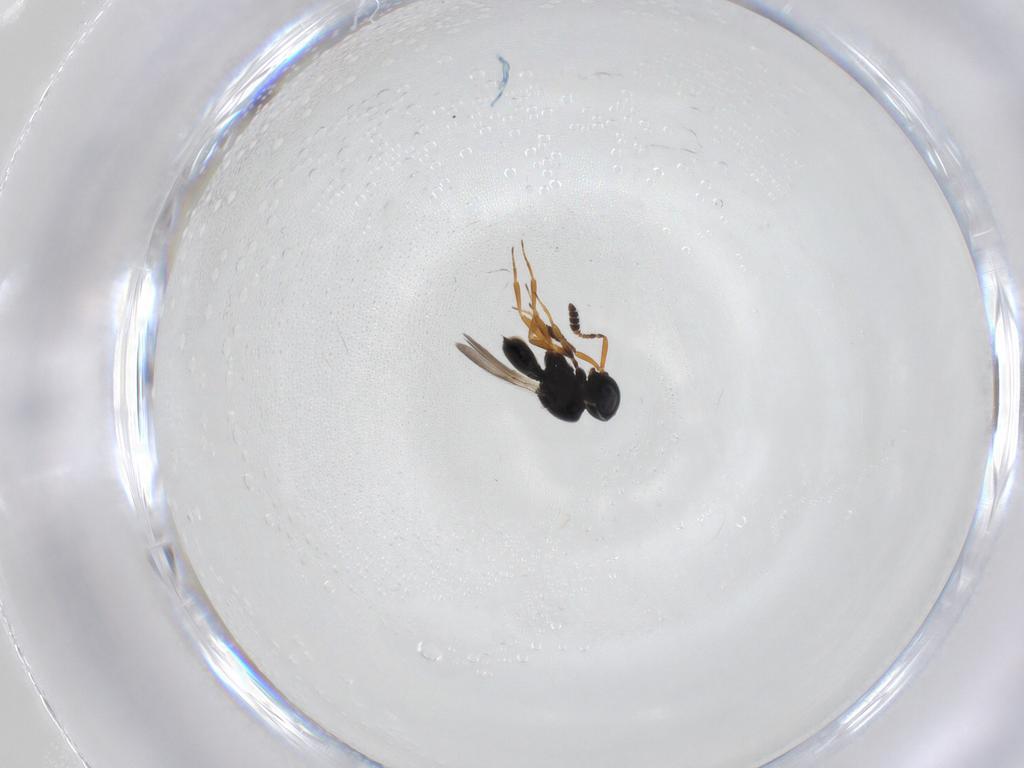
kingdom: Animalia
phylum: Arthropoda
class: Insecta
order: Hymenoptera
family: Scelionidae
